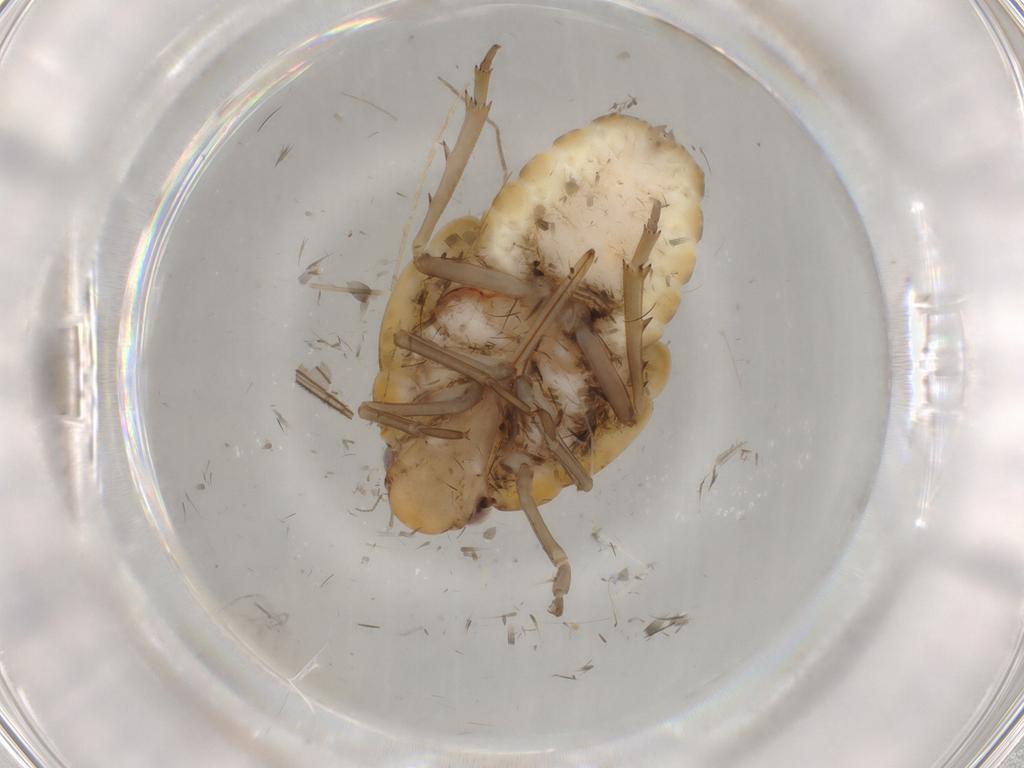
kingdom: Animalia
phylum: Arthropoda
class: Insecta
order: Hemiptera
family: Flatidae
